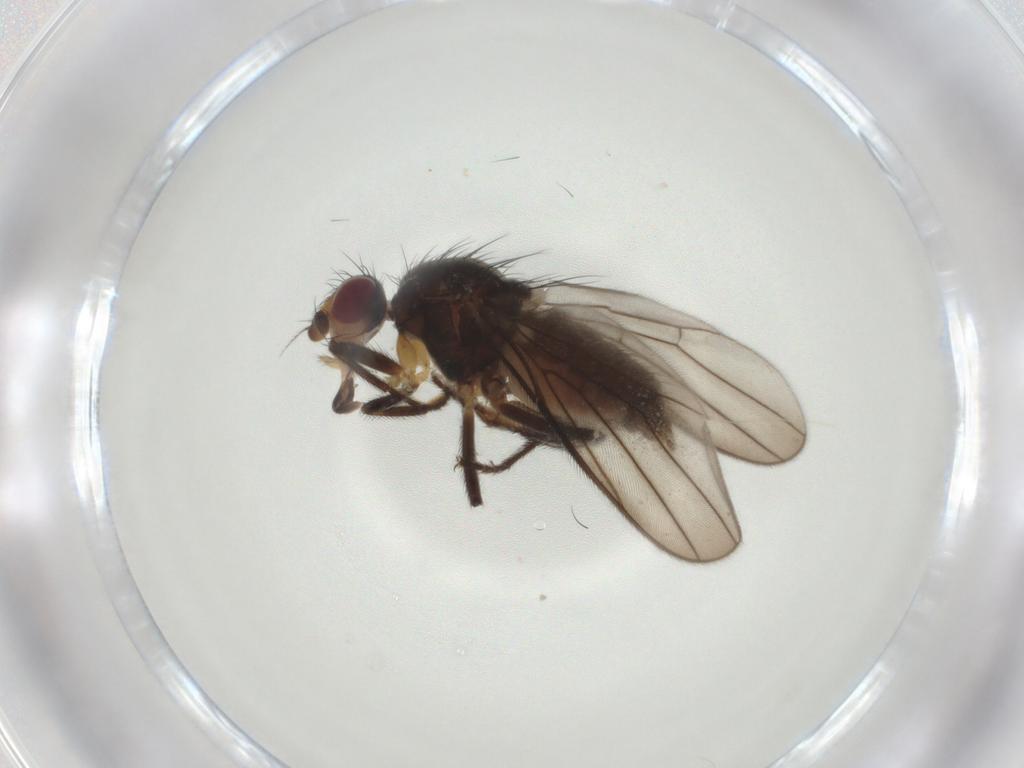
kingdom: Animalia
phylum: Arthropoda
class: Insecta
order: Diptera
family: Chloropidae
